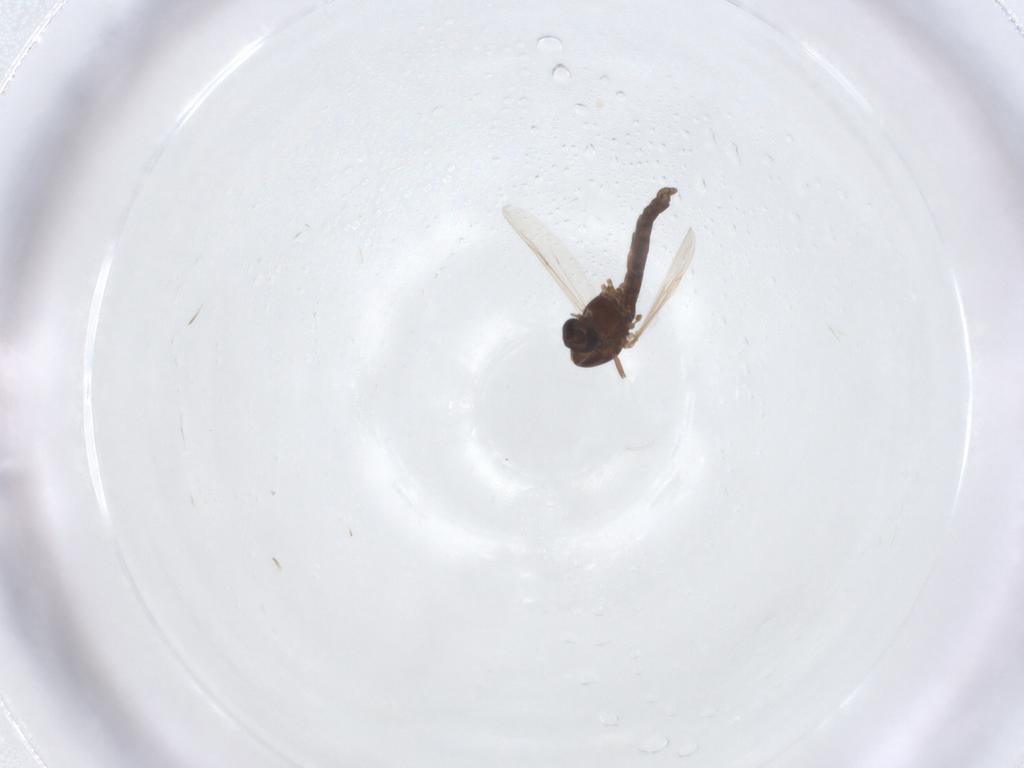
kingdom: Animalia
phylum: Arthropoda
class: Insecta
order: Diptera
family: Chironomidae
